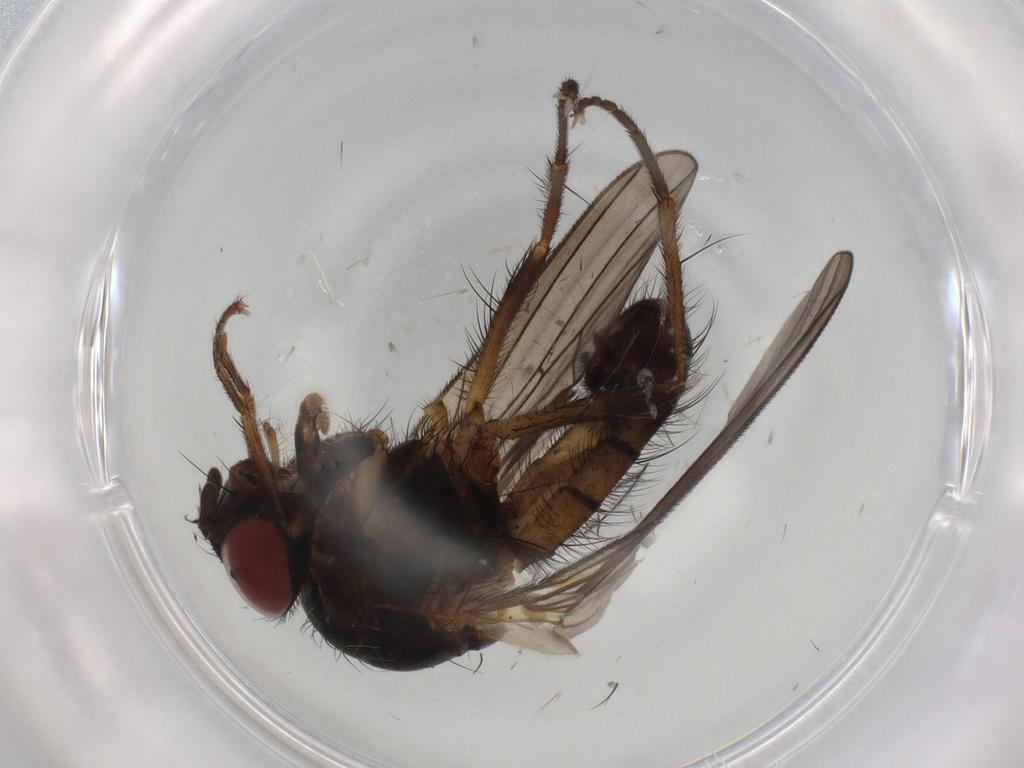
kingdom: Animalia
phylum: Arthropoda
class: Insecta
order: Diptera
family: Anthomyiidae
